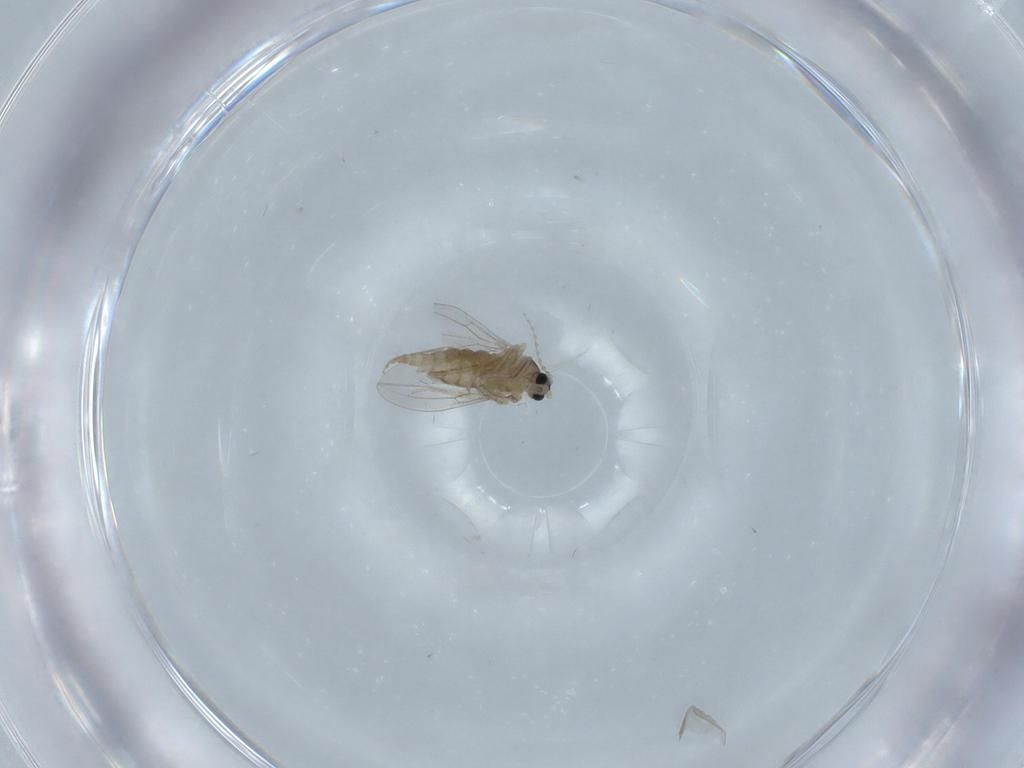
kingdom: Animalia
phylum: Arthropoda
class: Insecta
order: Diptera
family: Cecidomyiidae
